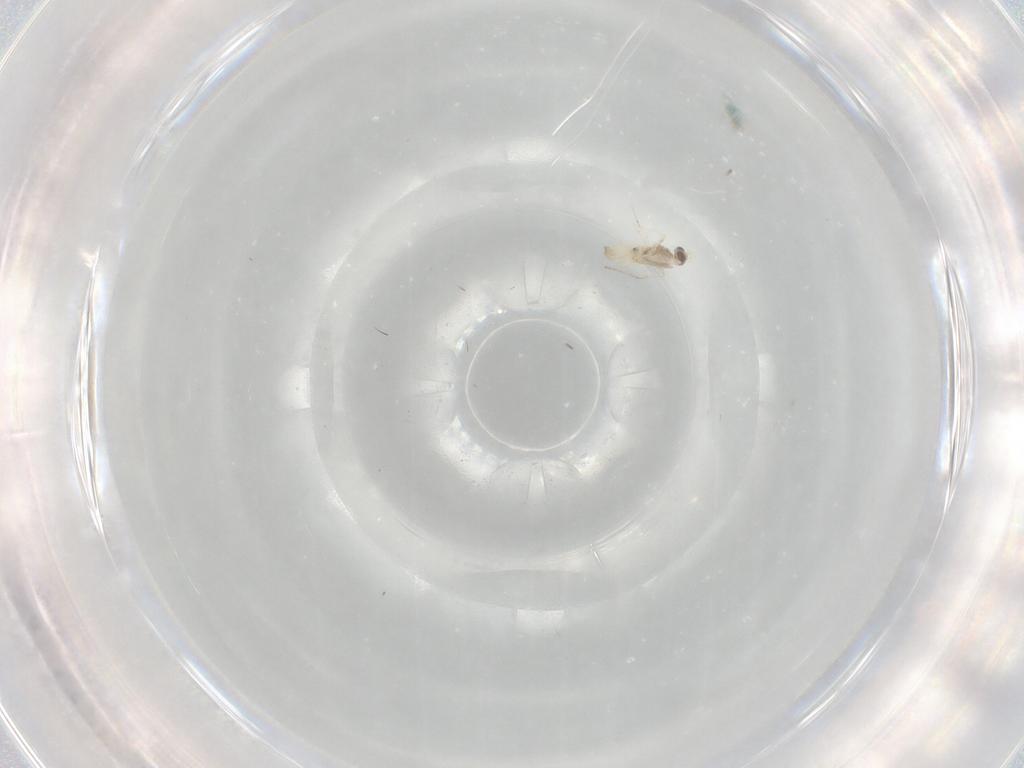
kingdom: Animalia
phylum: Arthropoda
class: Insecta
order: Diptera
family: Cecidomyiidae
